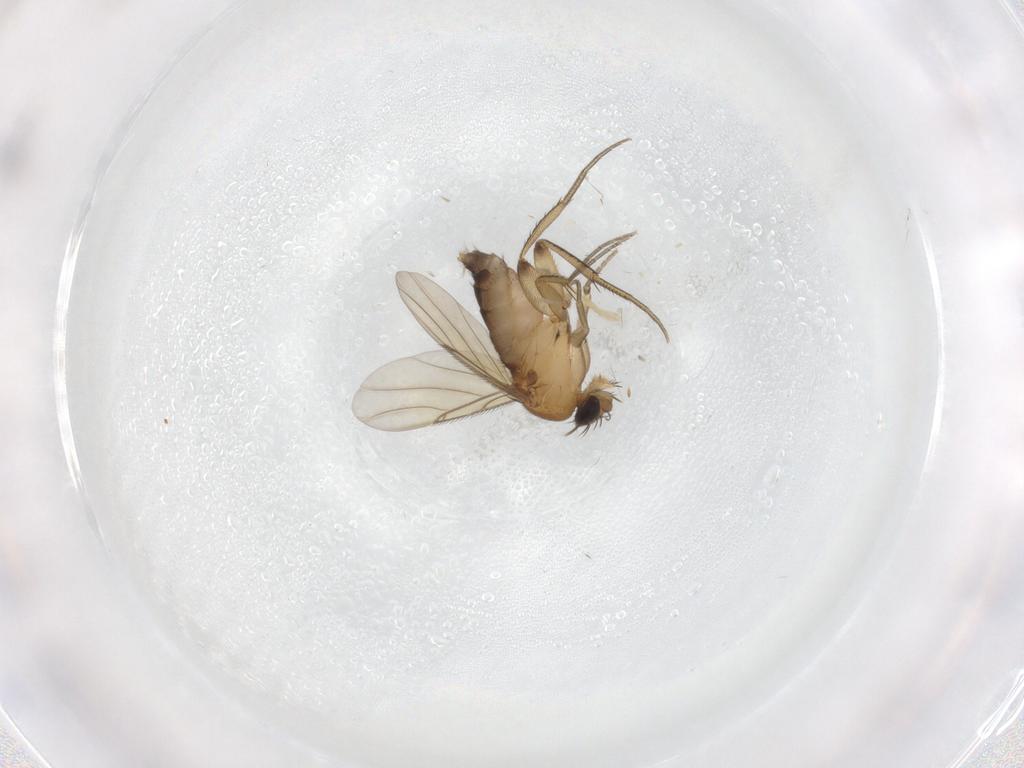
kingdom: Animalia
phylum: Arthropoda
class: Insecta
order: Diptera
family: Phoridae
